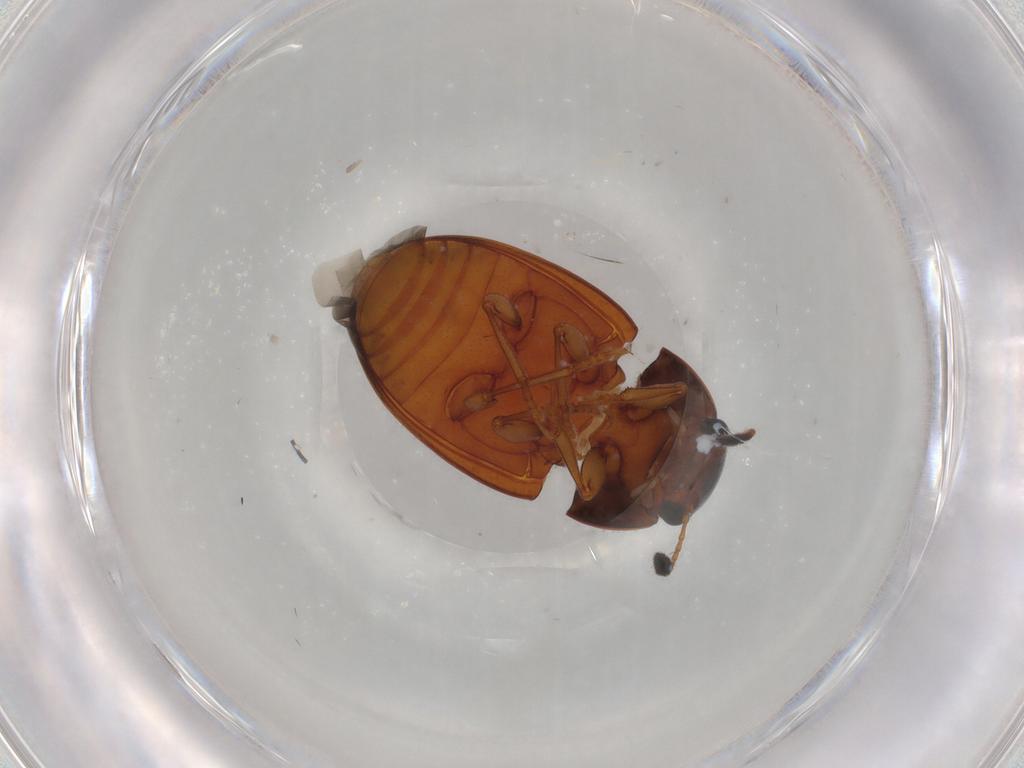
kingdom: Animalia
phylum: Arthropoda
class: Insecta
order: Coleoptera
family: Erotylidae
